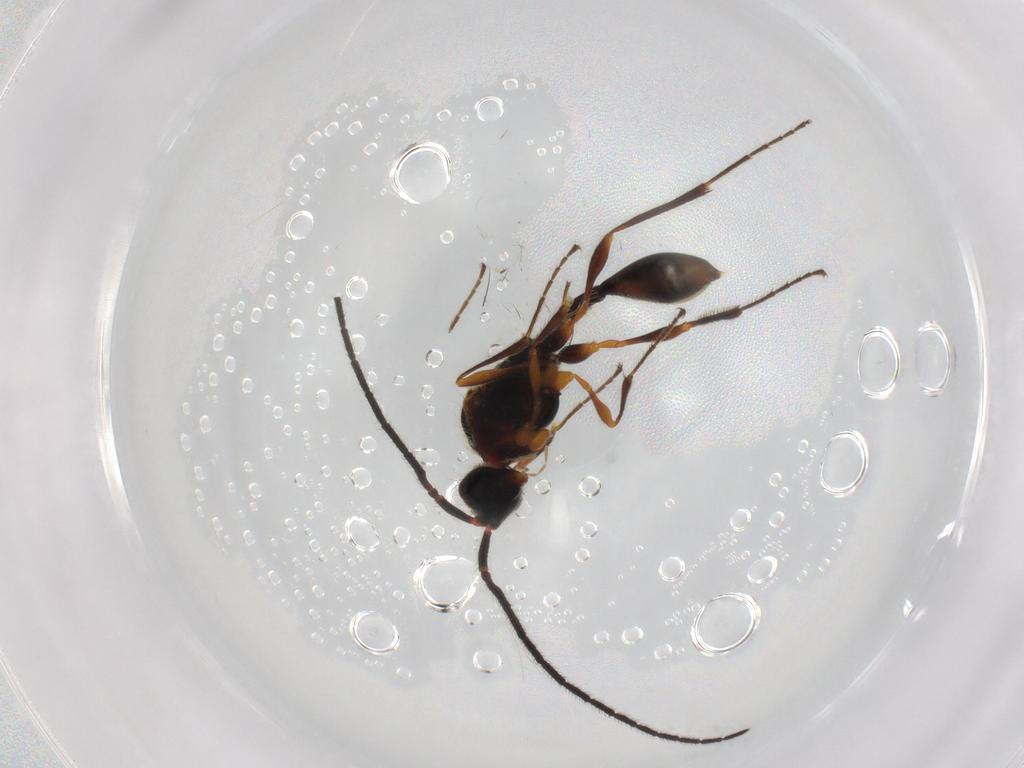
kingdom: Animalia
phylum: Arthropoda
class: Insecta
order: Hymenoptera
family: Diapriidae
